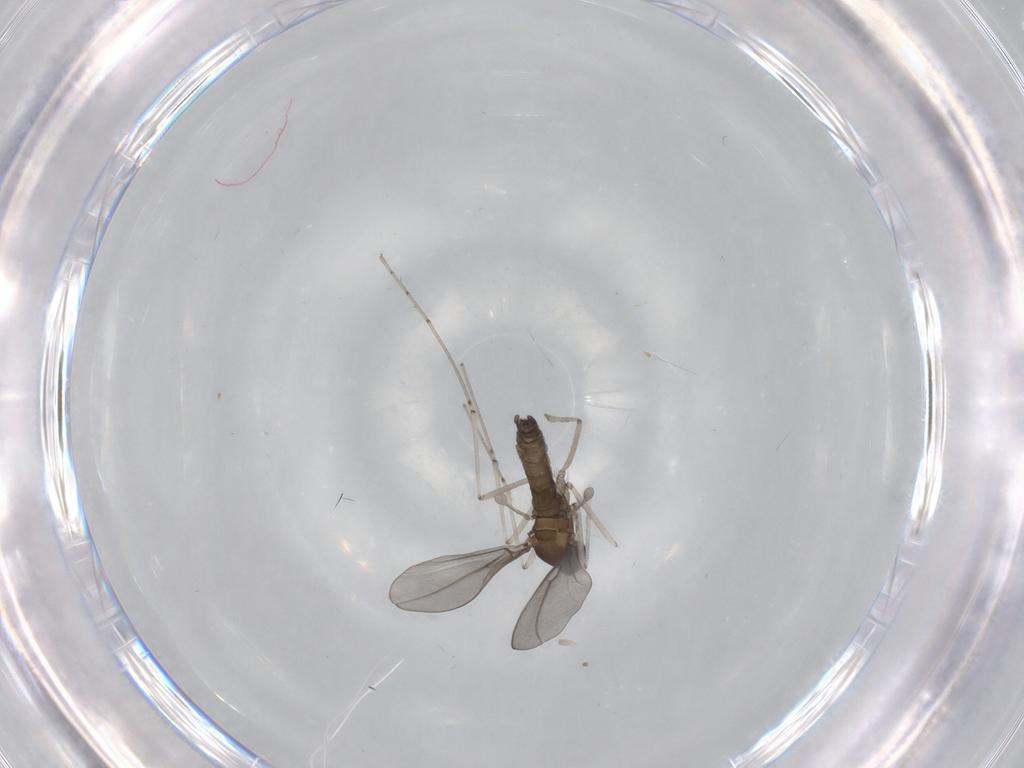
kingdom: Animalia
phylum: Arthropoda
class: Insecta
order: Diptera
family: Cecidomyiidae
